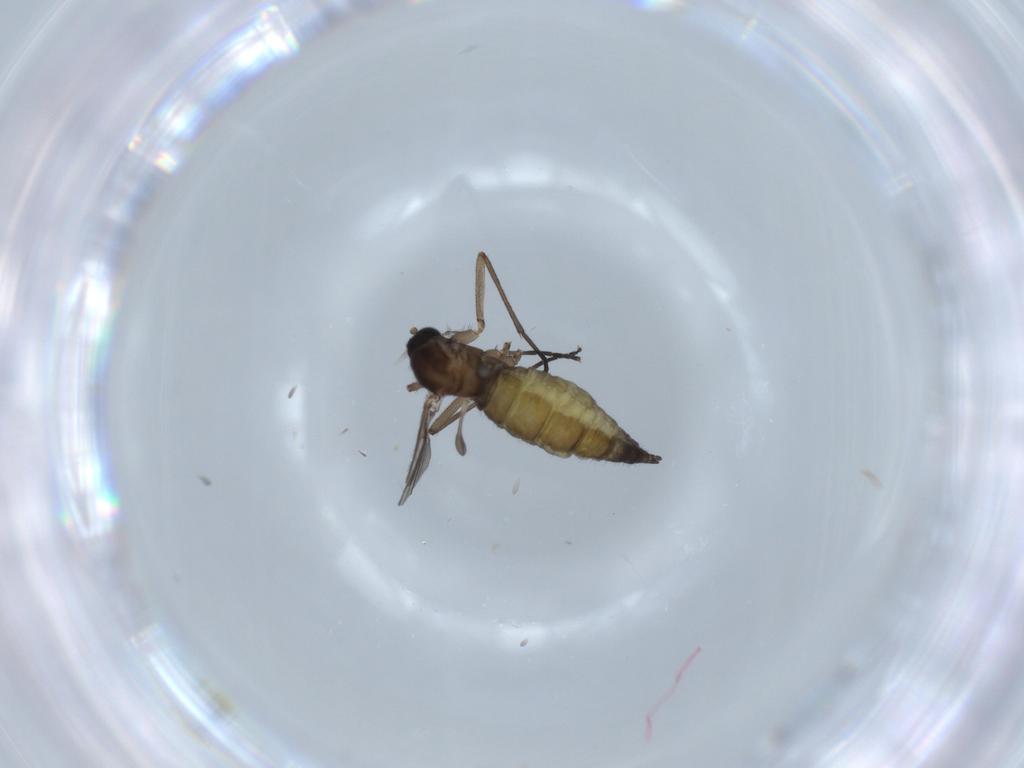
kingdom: Animalia
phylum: Arthropoda
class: Insecta
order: Diptera
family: Sciaridae
